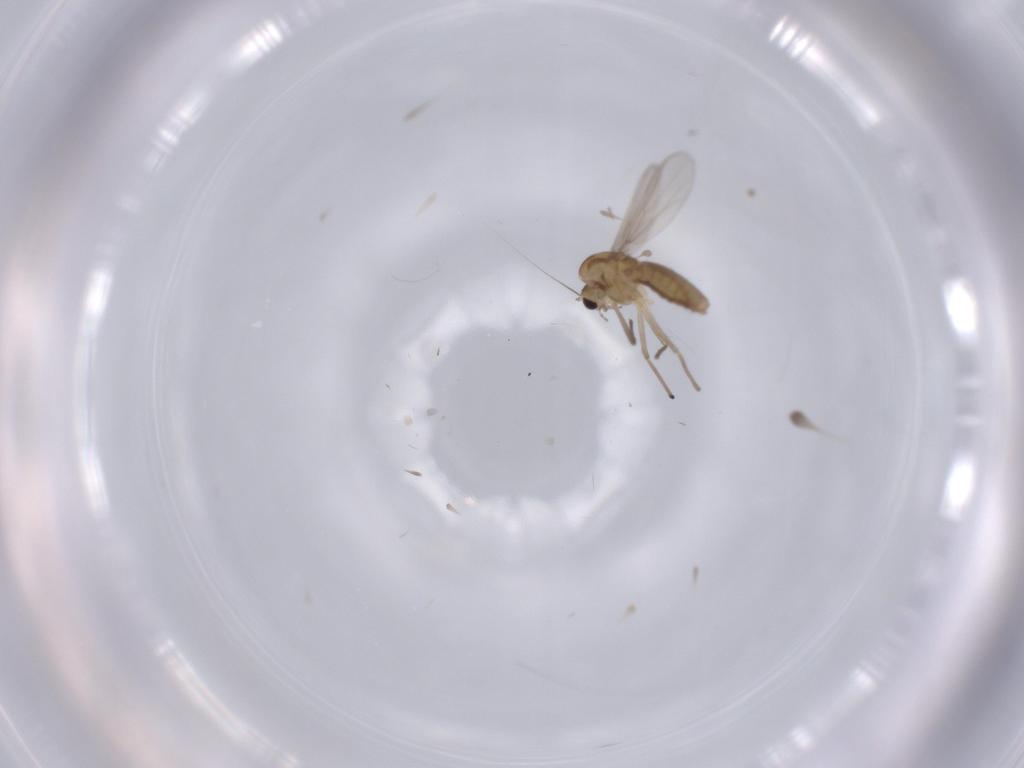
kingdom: Animalia
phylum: Arthropoda
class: Insecta
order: Diptera
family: Chironomidae
